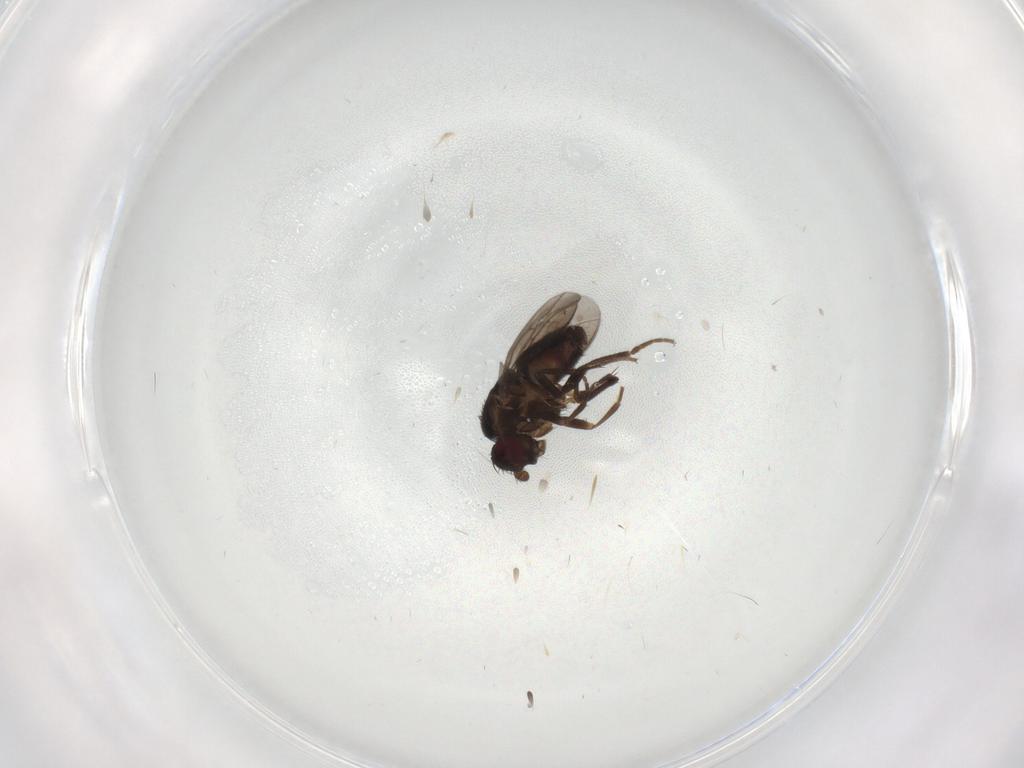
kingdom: Animalia
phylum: Arthropoda
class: Insecta
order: Diptera
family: Sphaeroceridae
